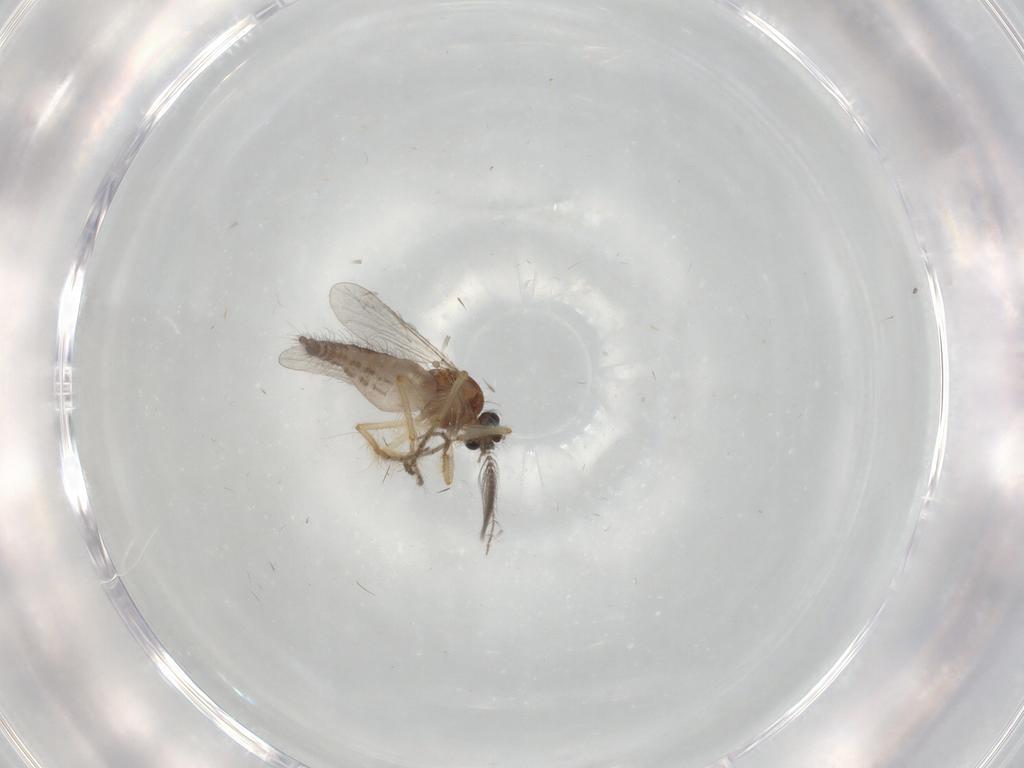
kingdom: Animalia
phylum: Arthropoda
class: Insecta
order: Diptera
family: Ceratopogonidae
